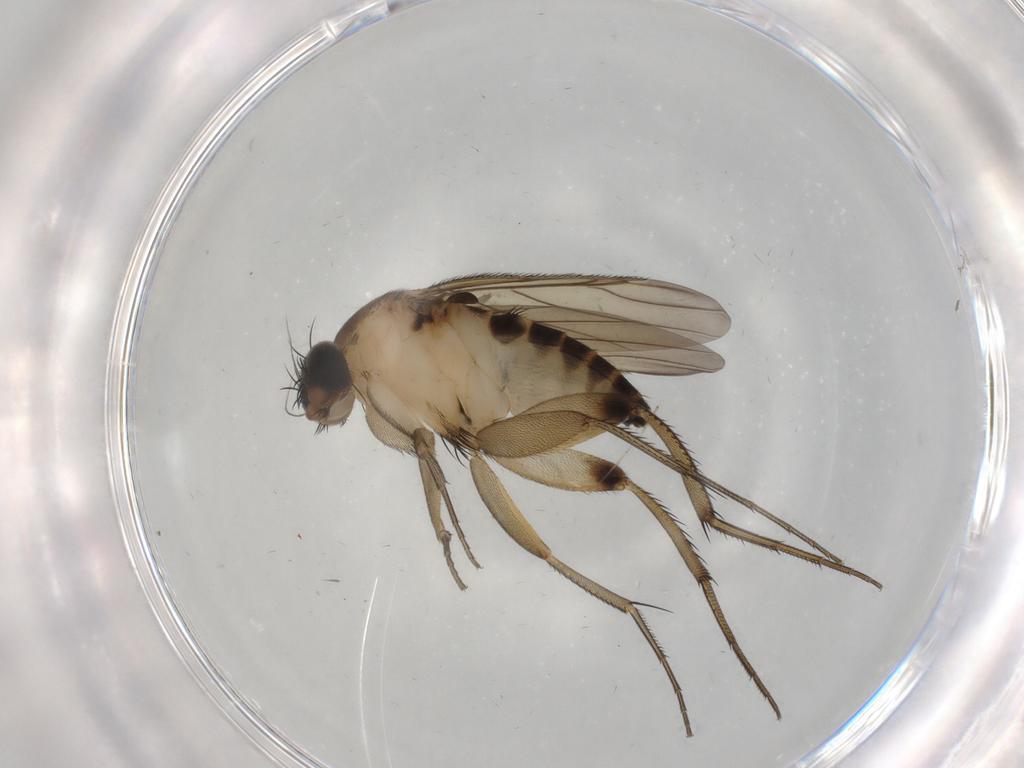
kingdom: Animalia
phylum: Arthropoda
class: Insecta
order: Diptera
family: Phoridae
